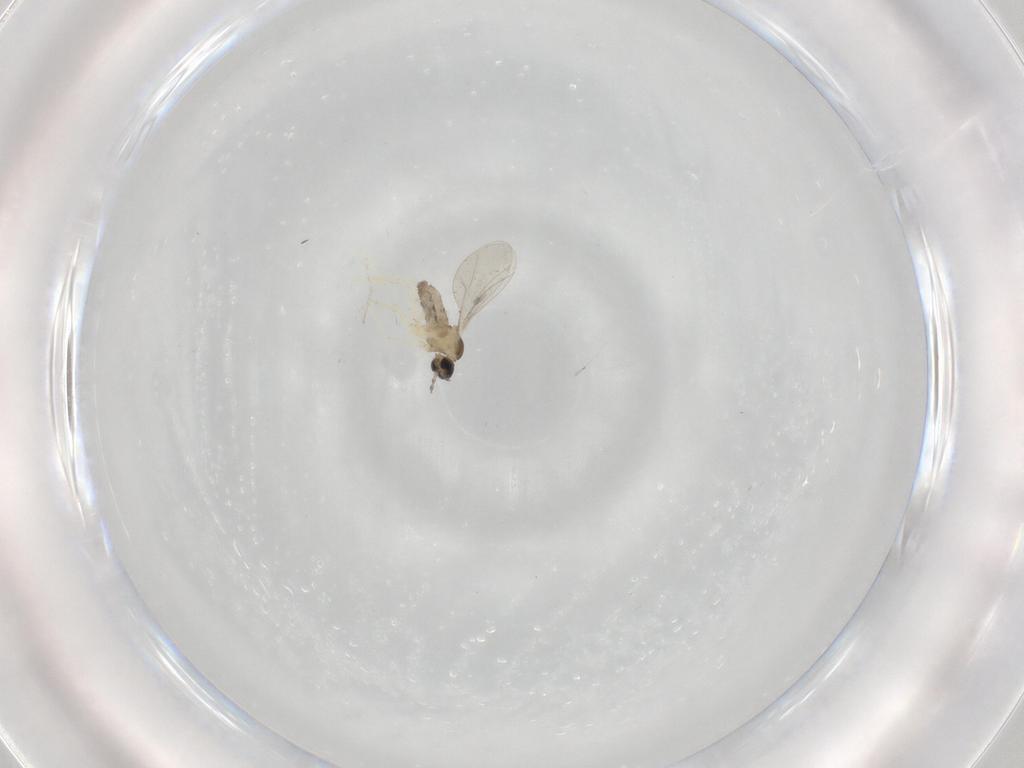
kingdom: Animalia
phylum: Arthropoda
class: Insecta
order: Diptera
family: Cecidomyiidae
